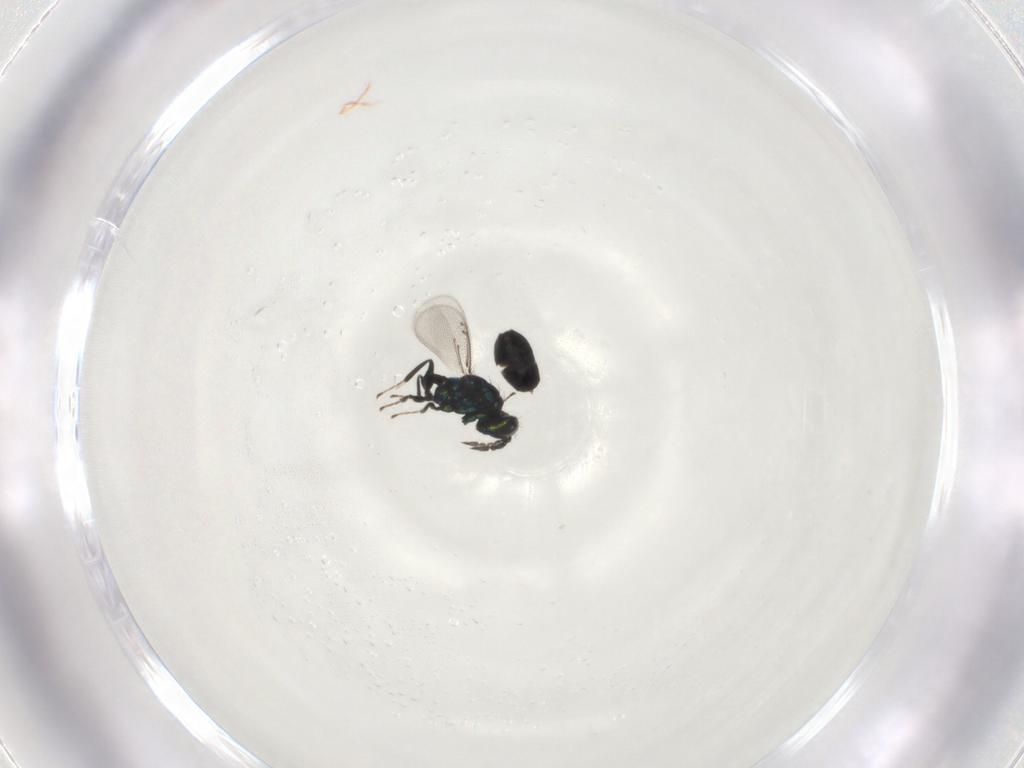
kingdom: Animalia
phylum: Arthropoda
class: Insecta
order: Hymenoptera
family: Eulophidae
